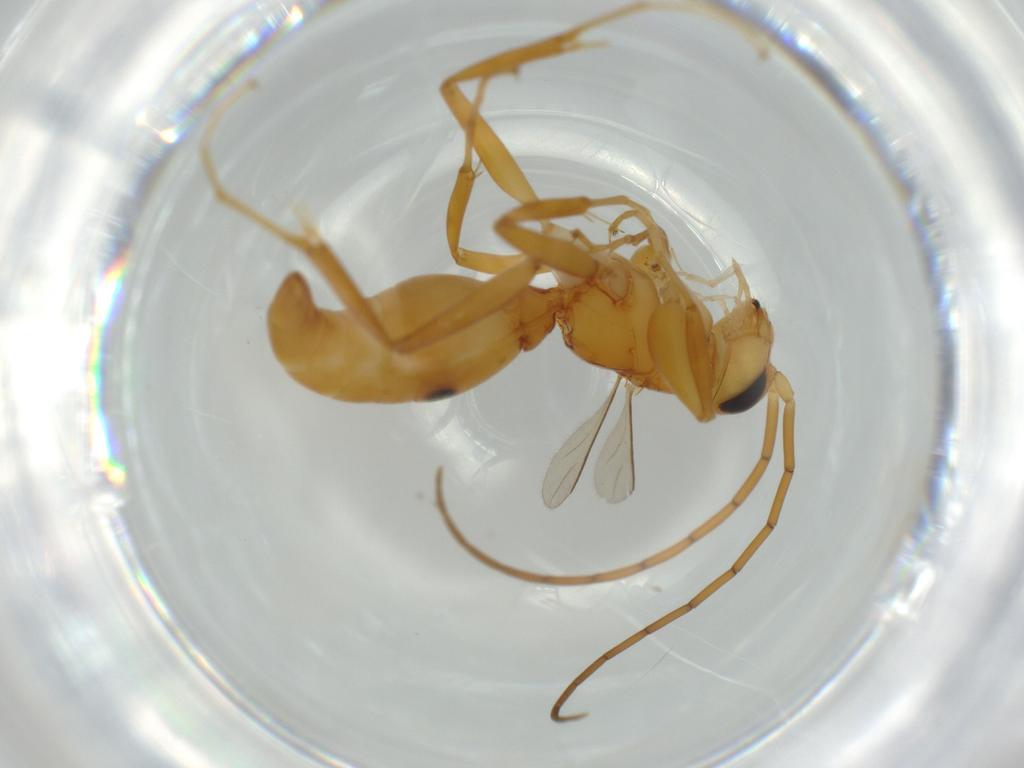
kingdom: Animalia
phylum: Arthropoda
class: Insecta
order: Hymenoptera
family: Rhopalosomatidae
